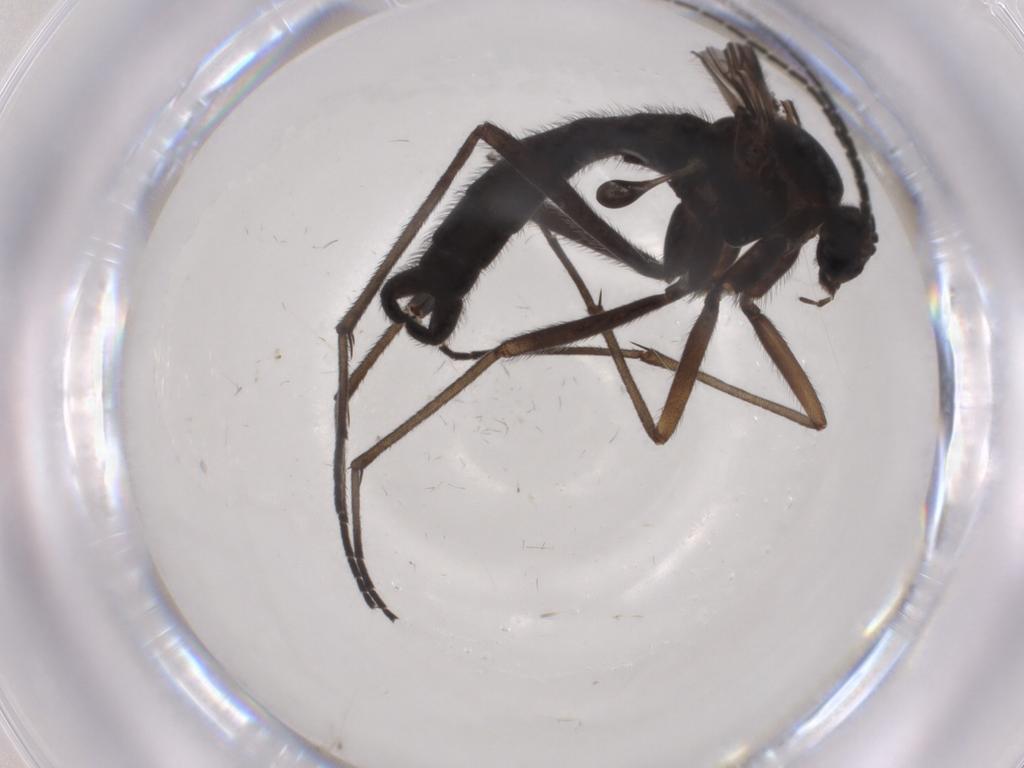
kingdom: Animalia
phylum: Arthropoda
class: Insecta
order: Diptera
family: Sciaridae
